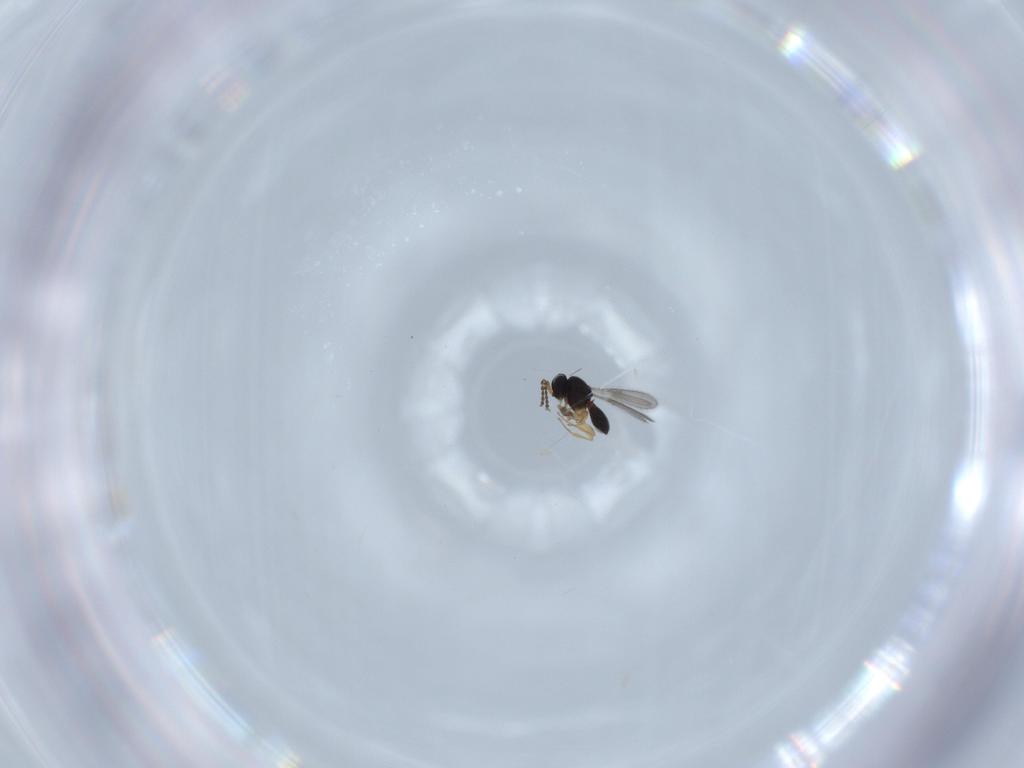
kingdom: Animalia
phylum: Arthropoda
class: Insecta
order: Hymenoptera
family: Scelionidae
